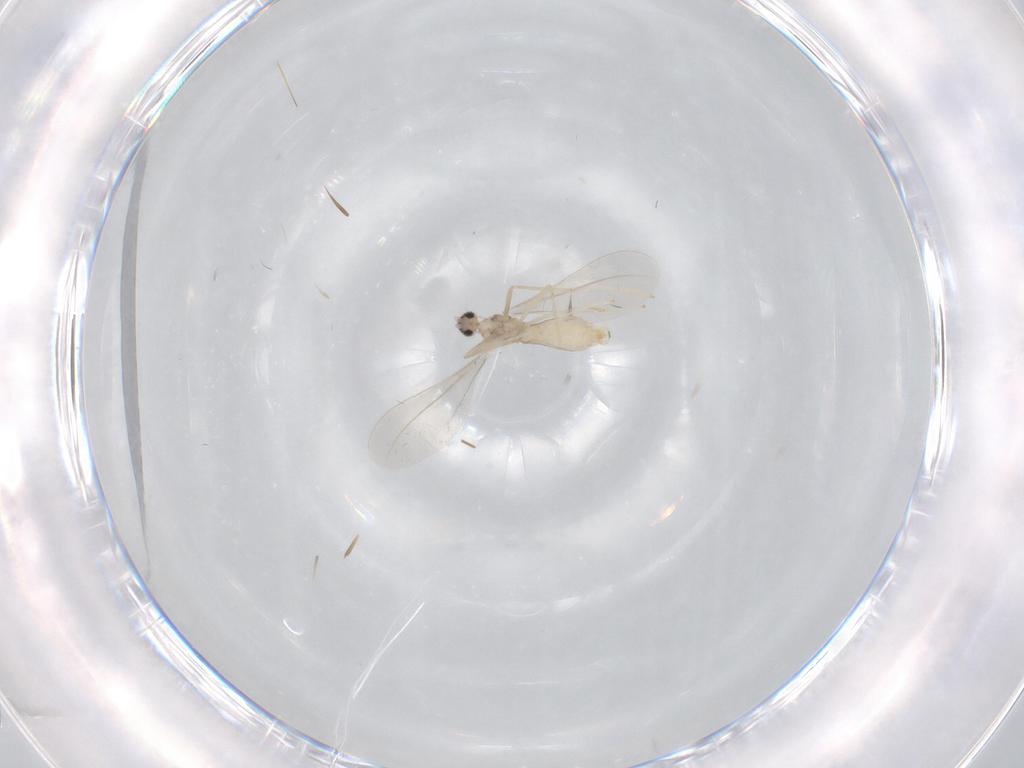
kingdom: Animalia
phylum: Arthropoda
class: Insecta
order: Diptera
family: Cecidomyiidae
